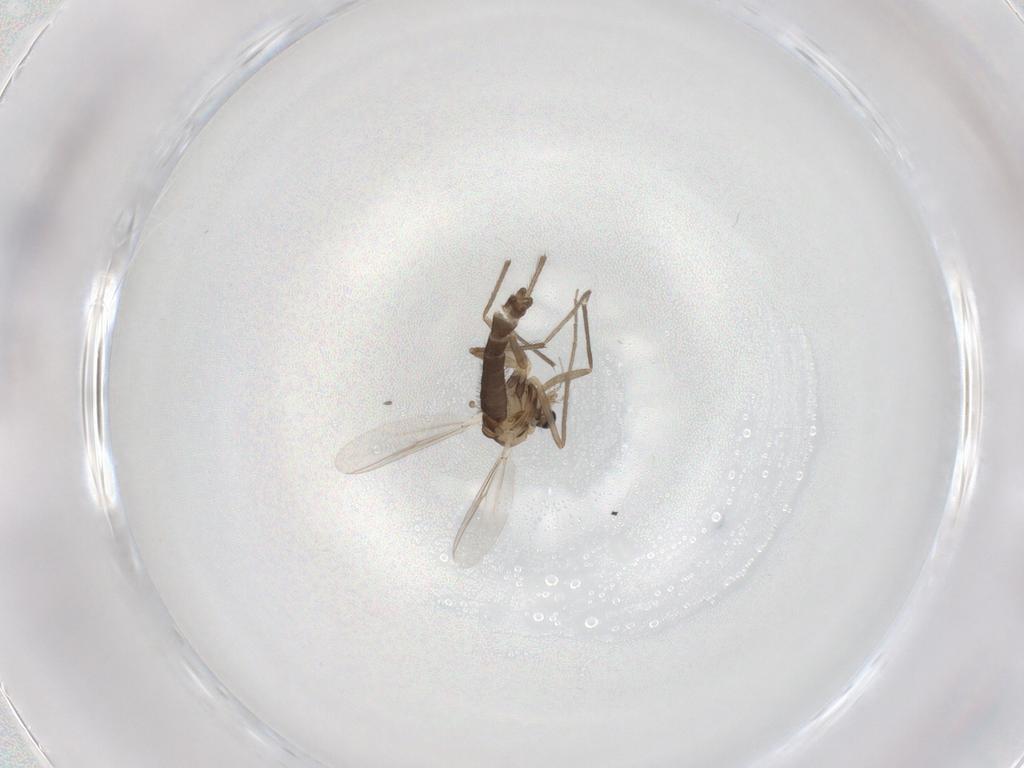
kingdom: Animalia
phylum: Arthropoda
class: Insecta
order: Diptera
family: Chironomidae
